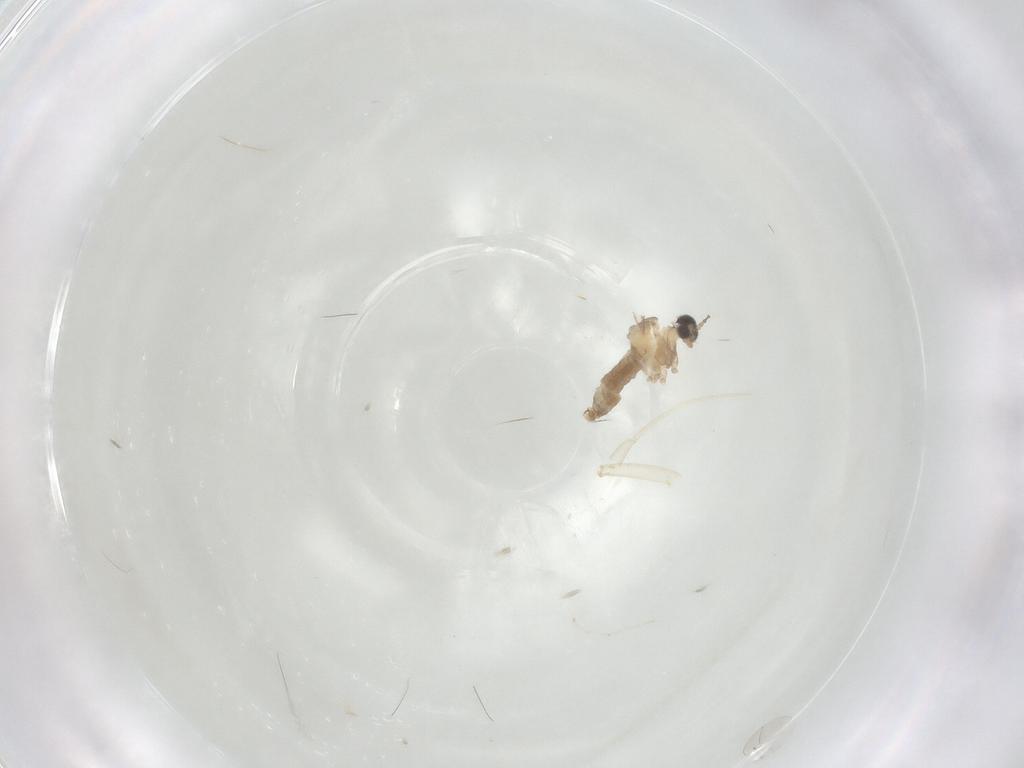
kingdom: Animalia
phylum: Arthropoda
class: Insecta
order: Diptera
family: Cecidomyiidae
